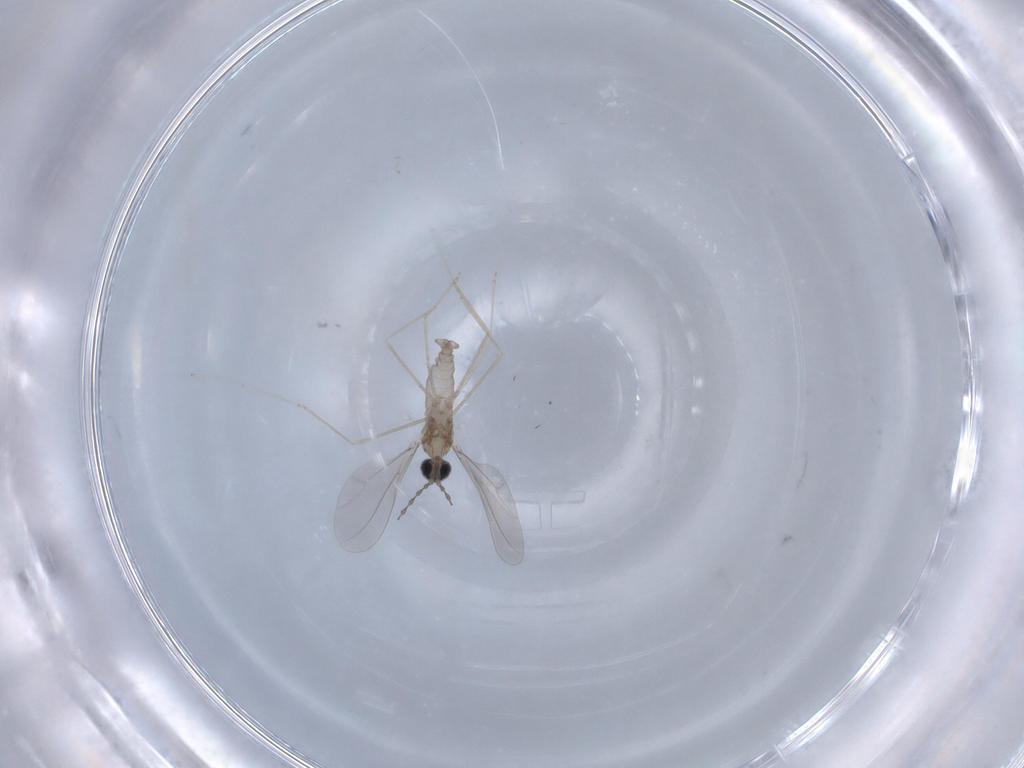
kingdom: Animalia
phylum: Arthropoda
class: Insecta
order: Diptera
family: Cecidomyiidae
